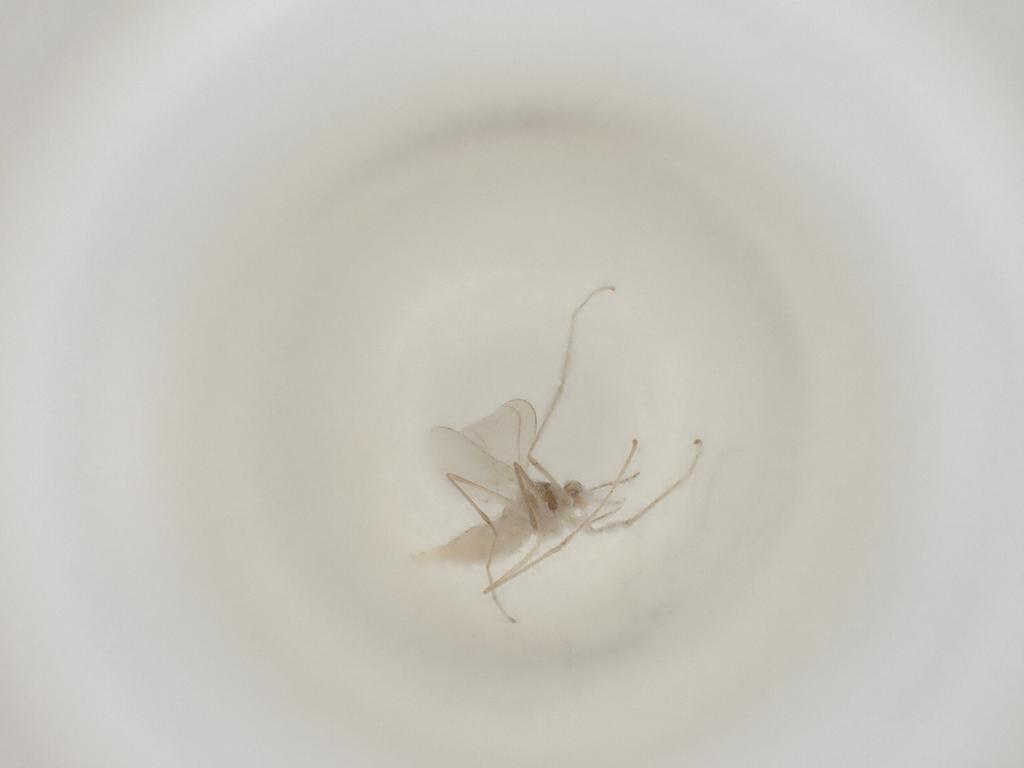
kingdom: Animalia
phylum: Arthropoda
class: Insecta
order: Diptera
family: Cecidomyiidae
